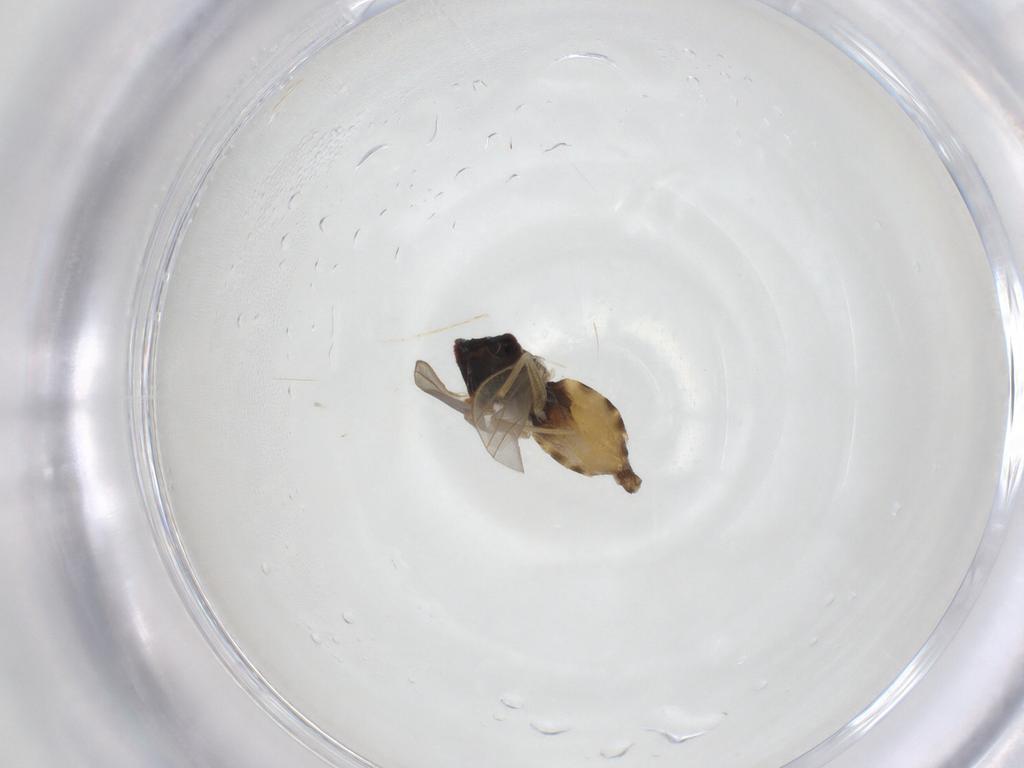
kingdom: Animalia
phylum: Arthropoda
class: Insecta
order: Diptera
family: Dolichopodidae
